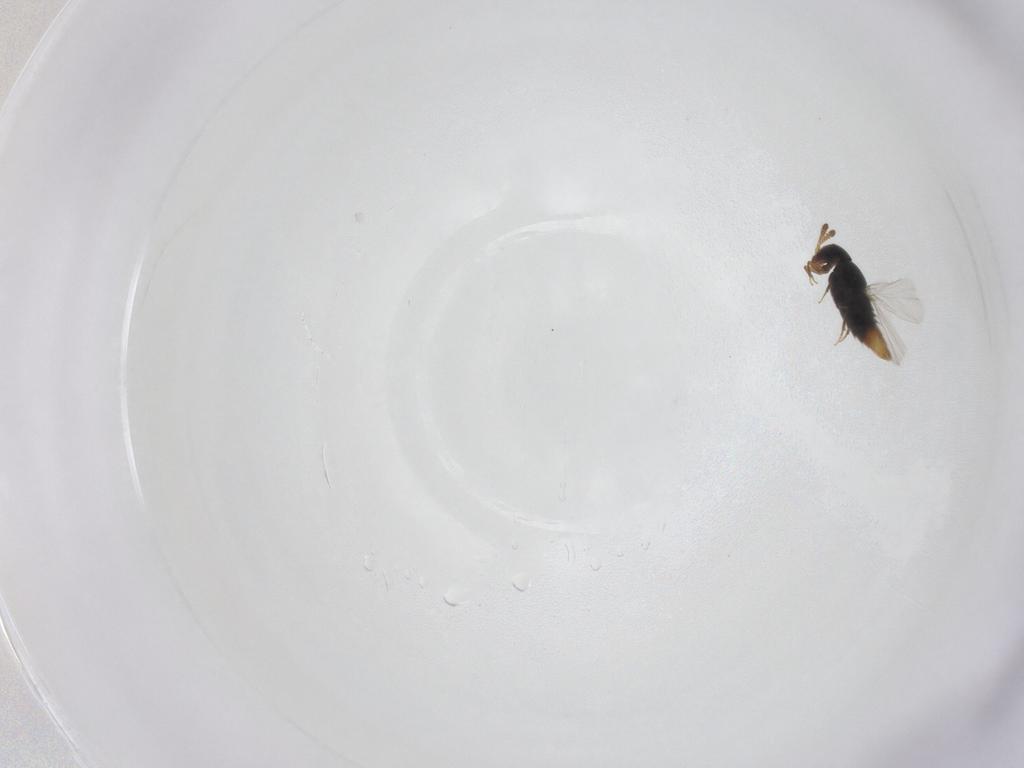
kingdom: Animalia
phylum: Arthropoda
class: Insecta
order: Coleoptera
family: Staphylinidae
